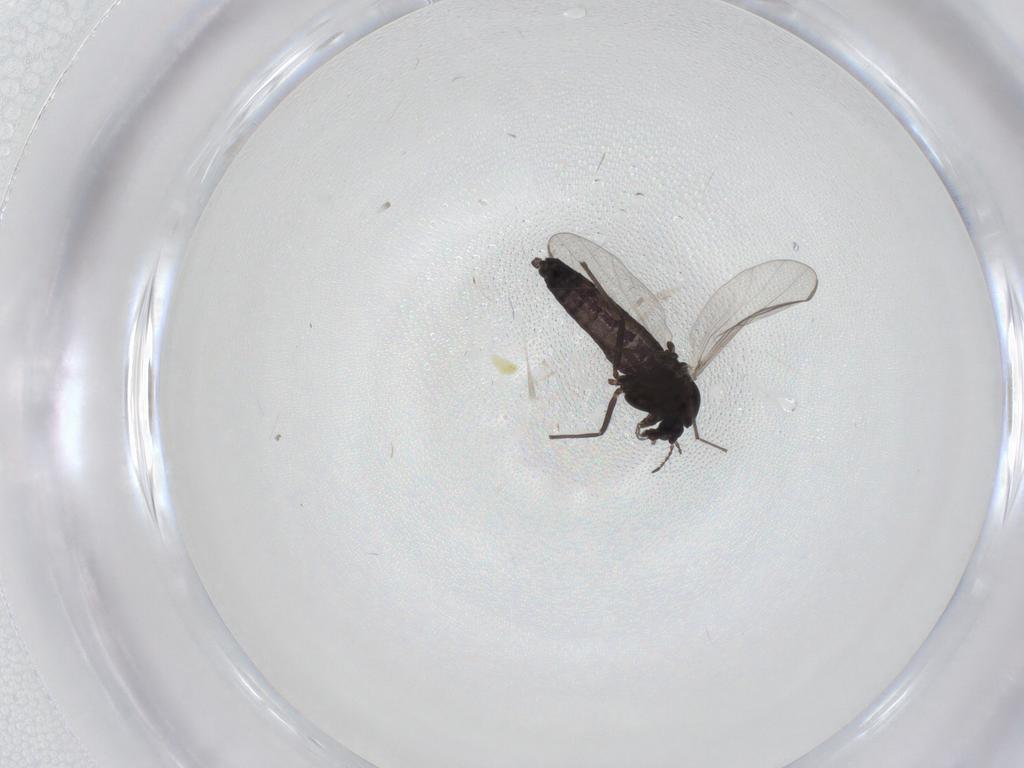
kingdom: Animalia
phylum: Arthropoda
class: Insecta
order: Diptera
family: Chironomidae
